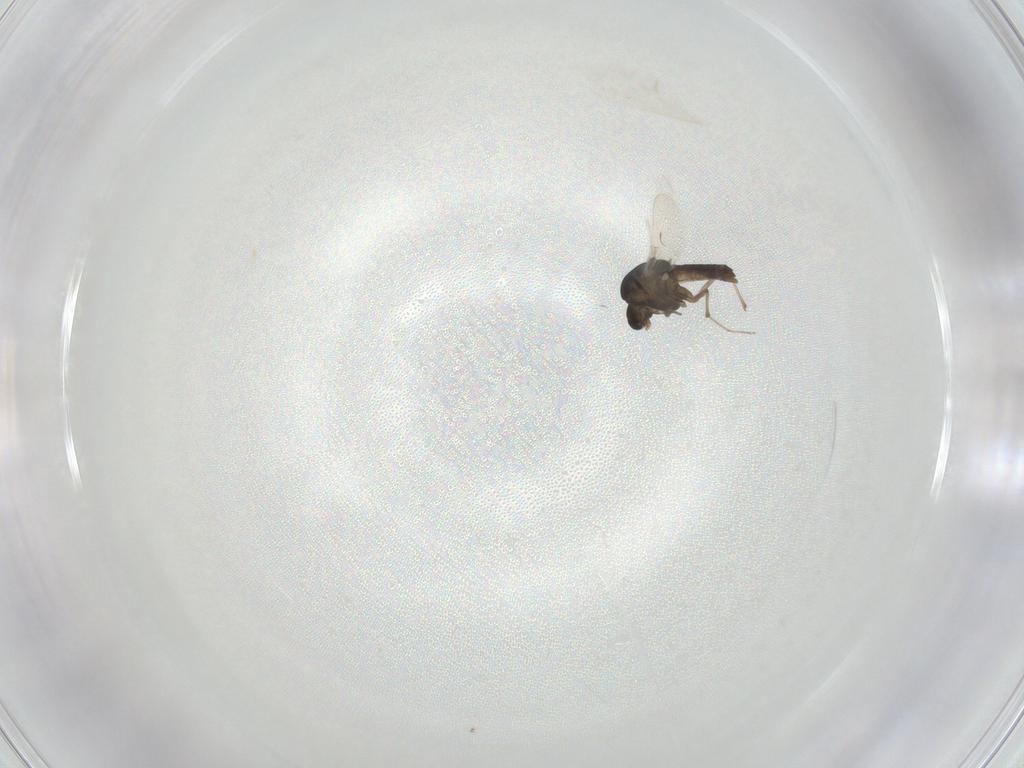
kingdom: Animalia
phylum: Arthropoda
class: Insecta
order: Diptera
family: Chironomidae
